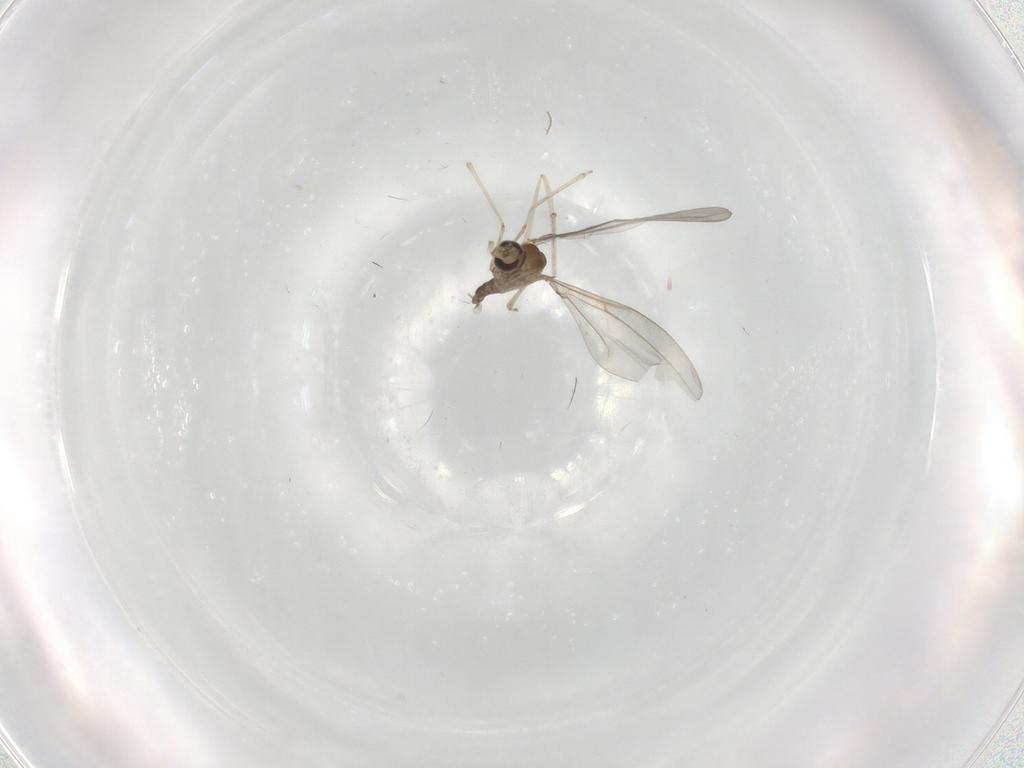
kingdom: Animalia
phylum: Arthropoda
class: Insecta
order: Diptera
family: Cecidomyiidae
